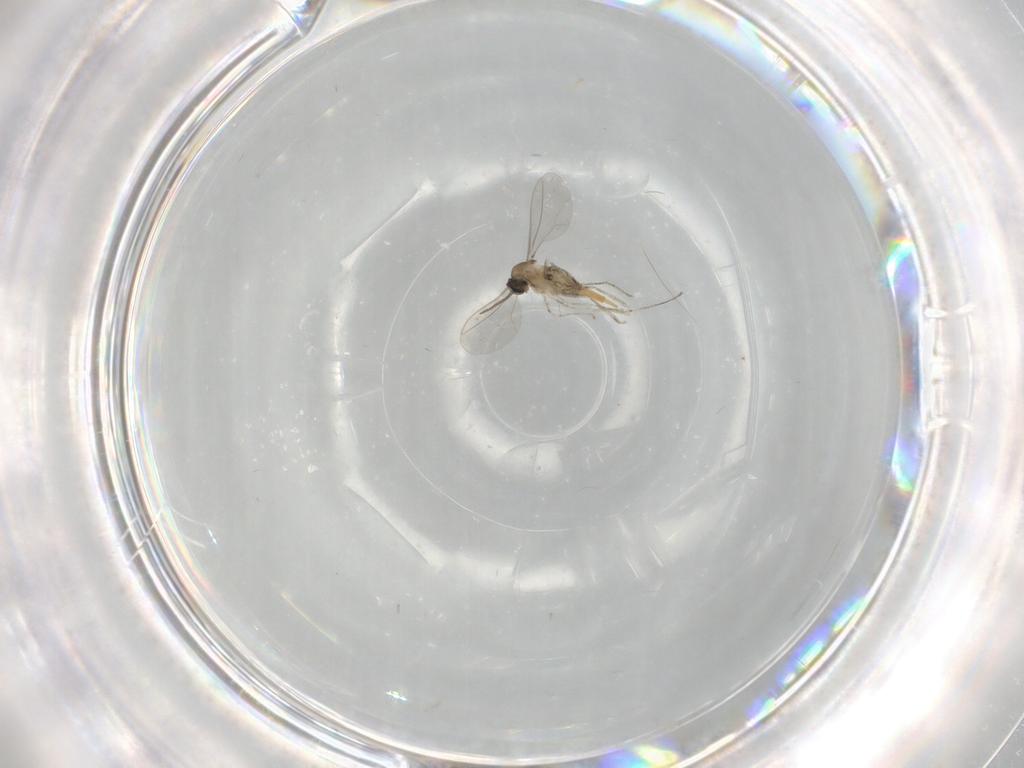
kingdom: Animalia
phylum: Arthropoda
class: Insecta
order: Diptera
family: Cecidomyiidae
